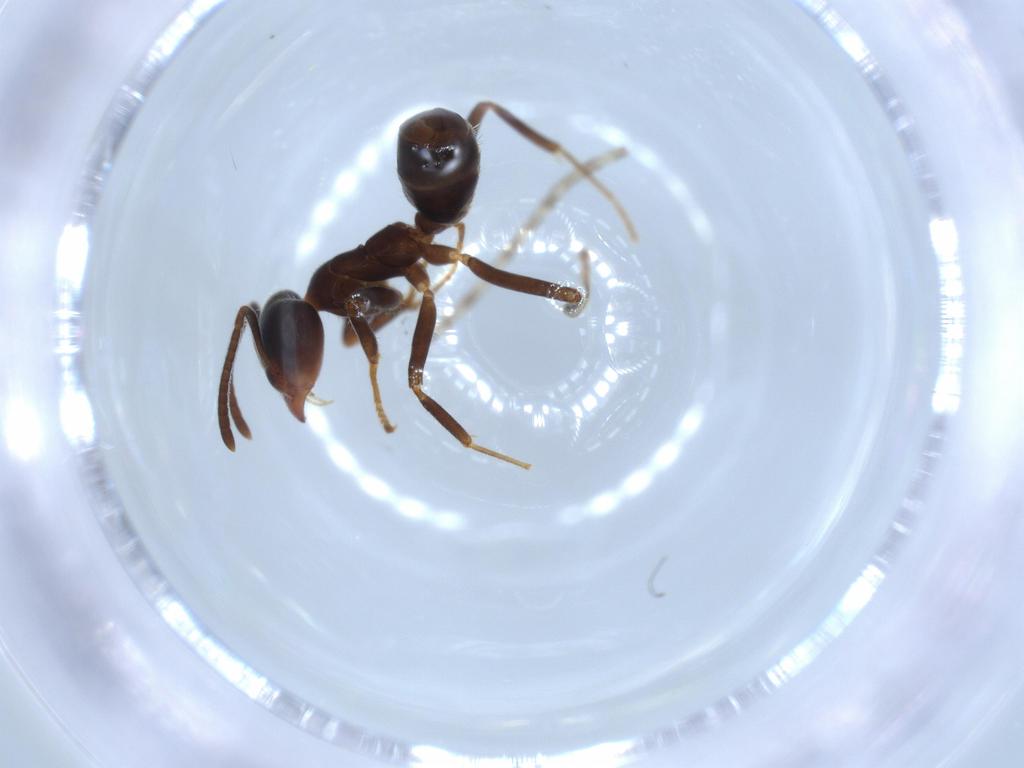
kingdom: Animalia
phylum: Arthropoda
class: Insecta
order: Hymenoptera
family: Formicidae
